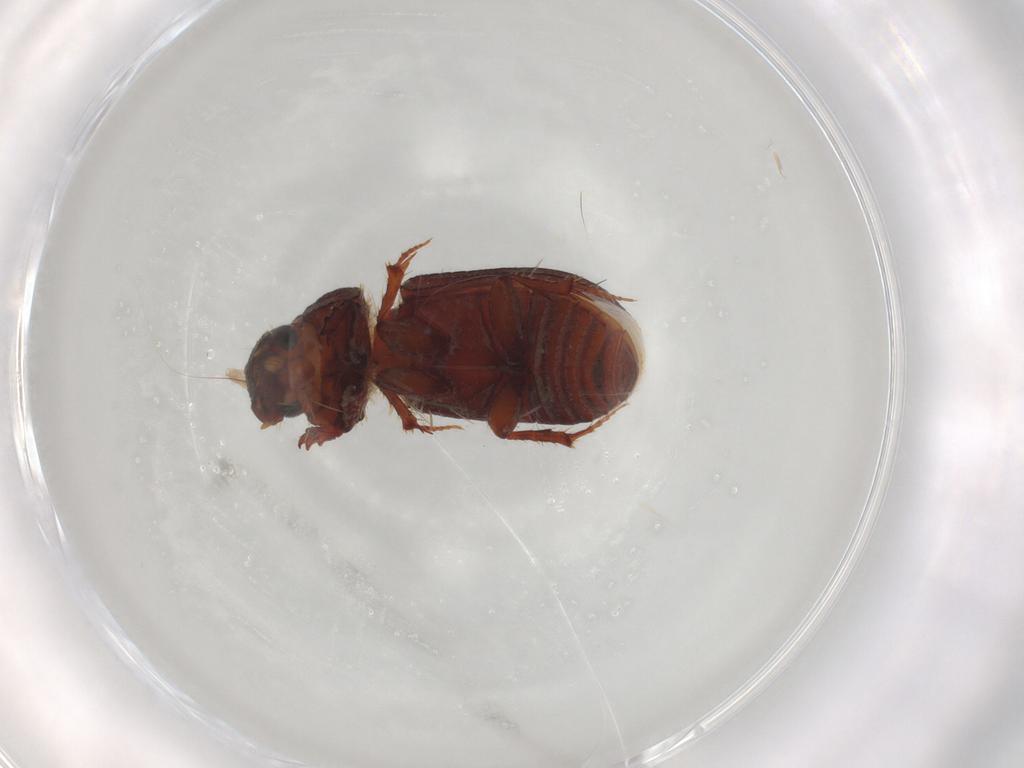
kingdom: Animalia
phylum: Arthropoda
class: Insecta
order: Coleoptera
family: Scarabaeidae
